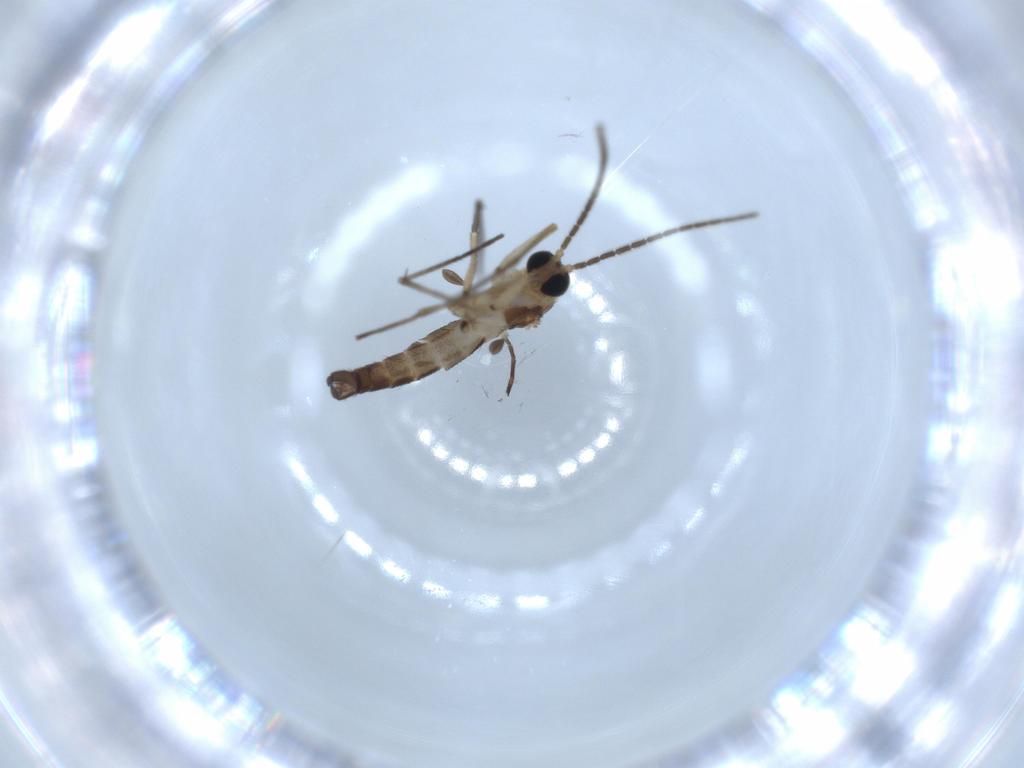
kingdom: Animalia
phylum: Arthropoda
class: Insecta
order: Diptera
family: Sciaridae
